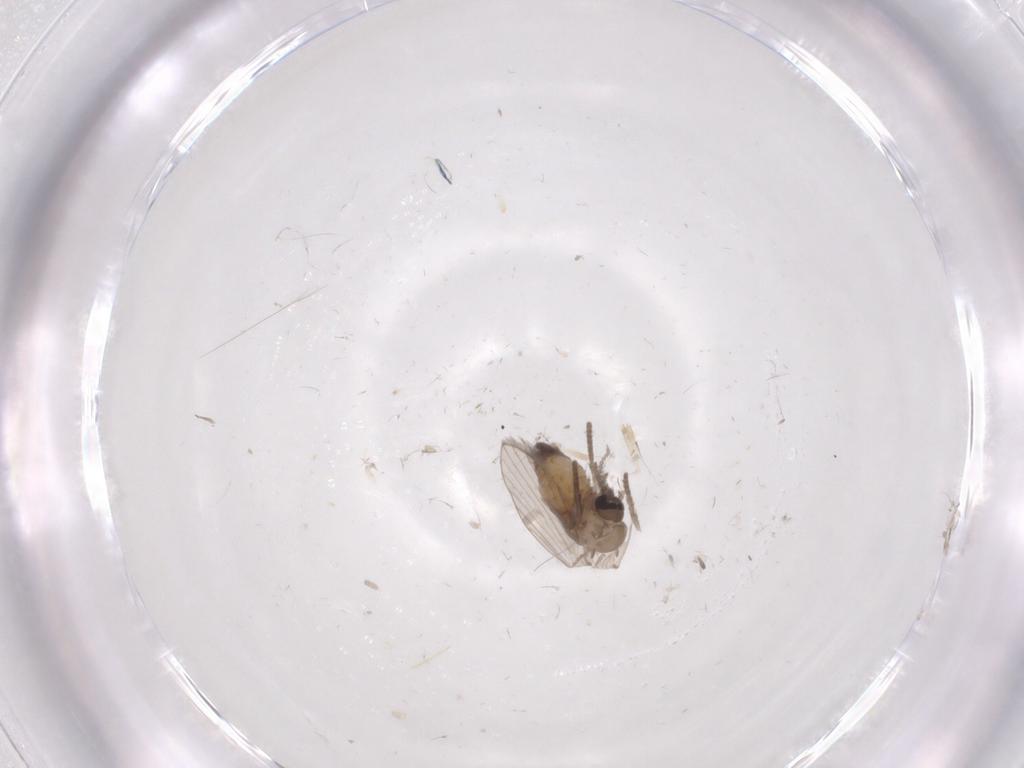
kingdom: Animalia
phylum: Arthropoda
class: Insecta
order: Diptera
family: Psychodidae
